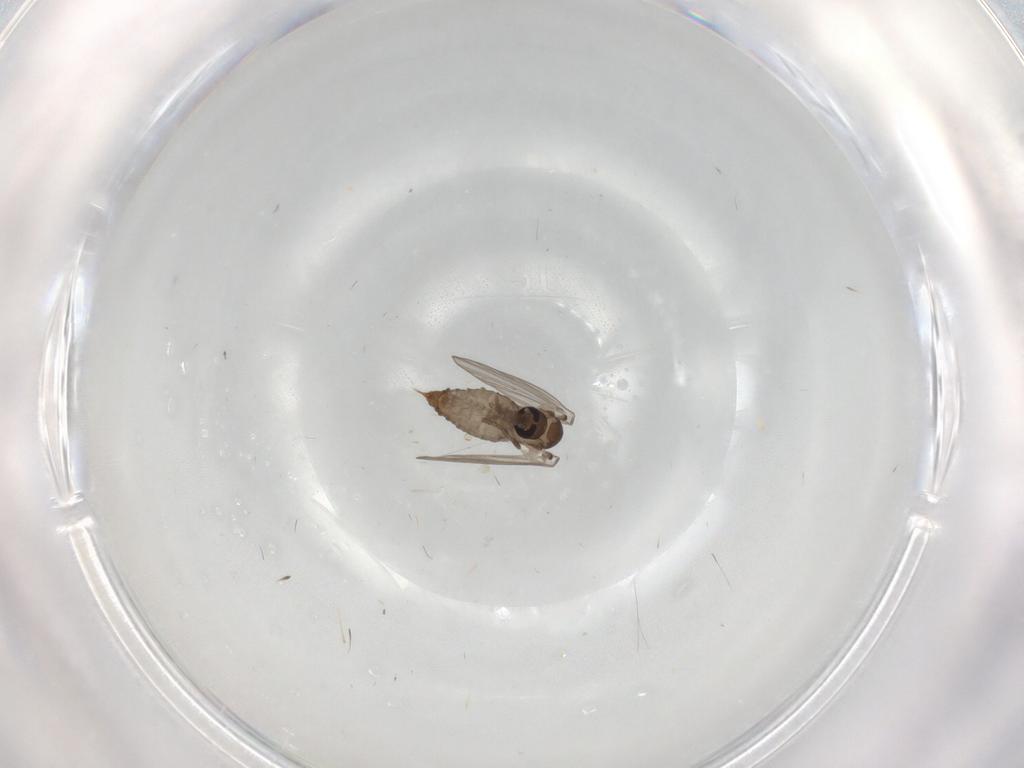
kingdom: Animalia
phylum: Arthropoda
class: Insecta
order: Diptera
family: Psychodidae
